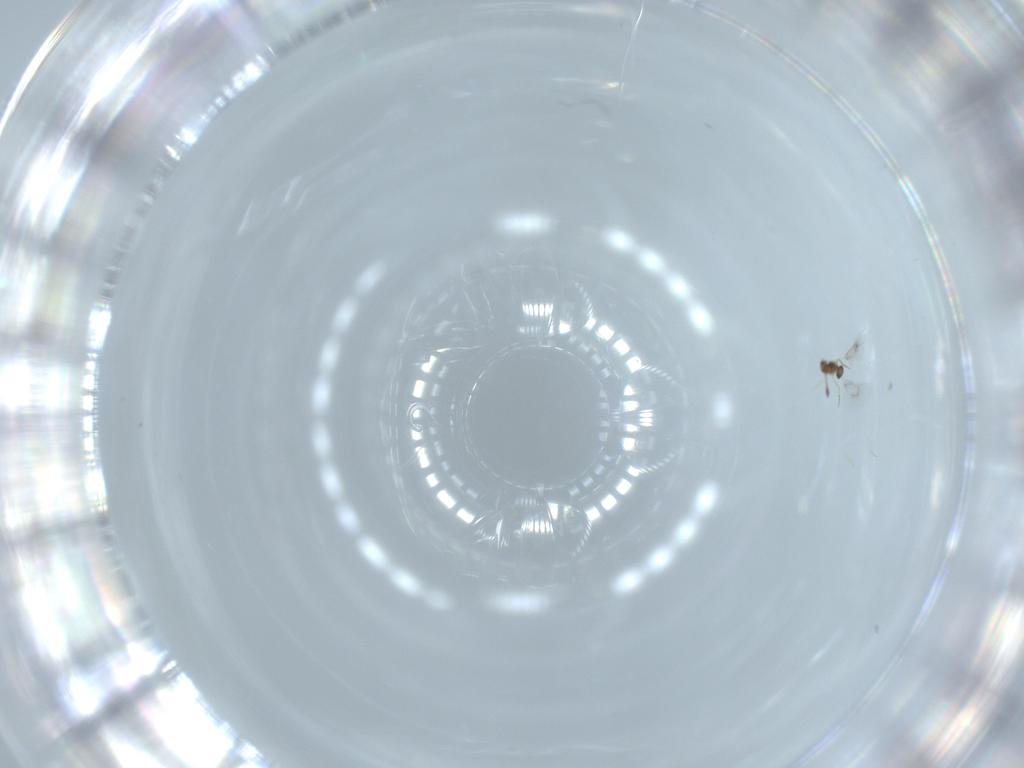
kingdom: Animalia
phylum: Arthropoda
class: Insecta
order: Hymenoptera
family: Mymarommatidae
